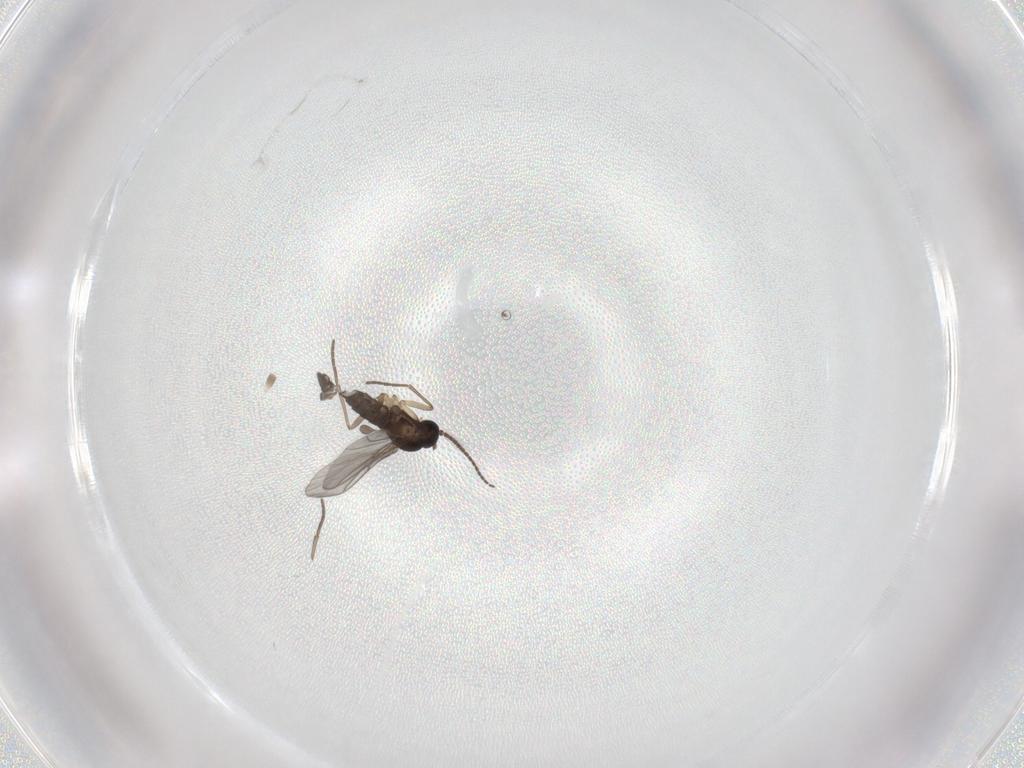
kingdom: Animalia
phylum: Arthropoda
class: Insecta
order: Diptera
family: Sciaridae
